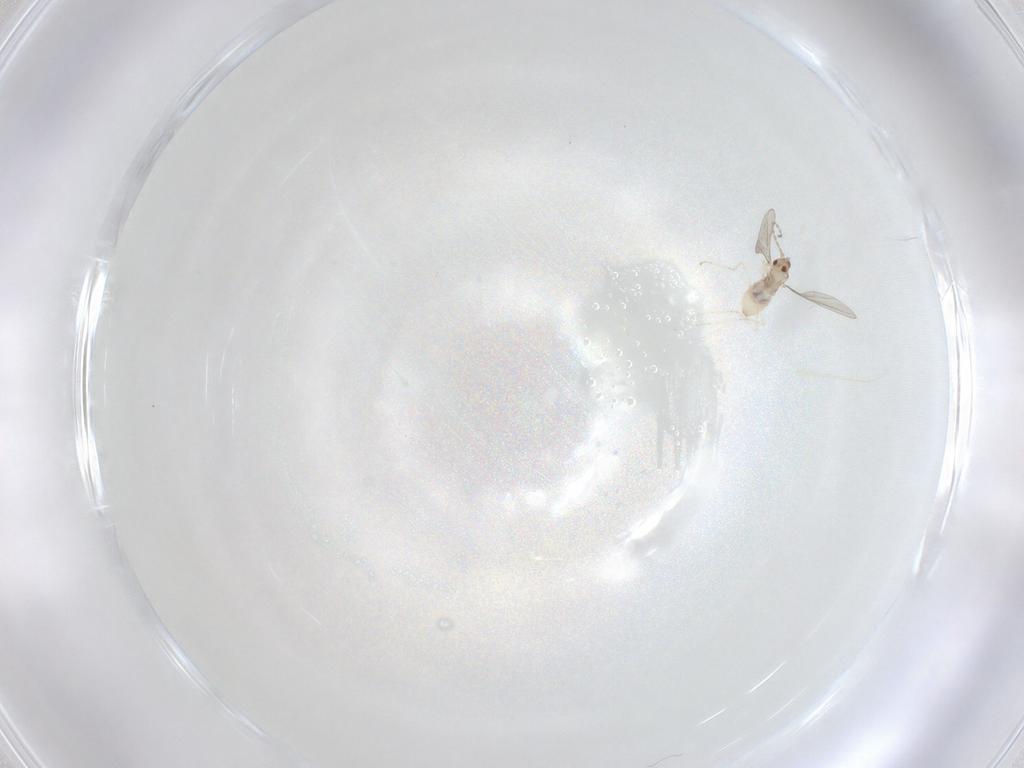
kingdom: Animalia
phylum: Arthropoda
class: Insecta
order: Diptera
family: Cecidomyiidae
